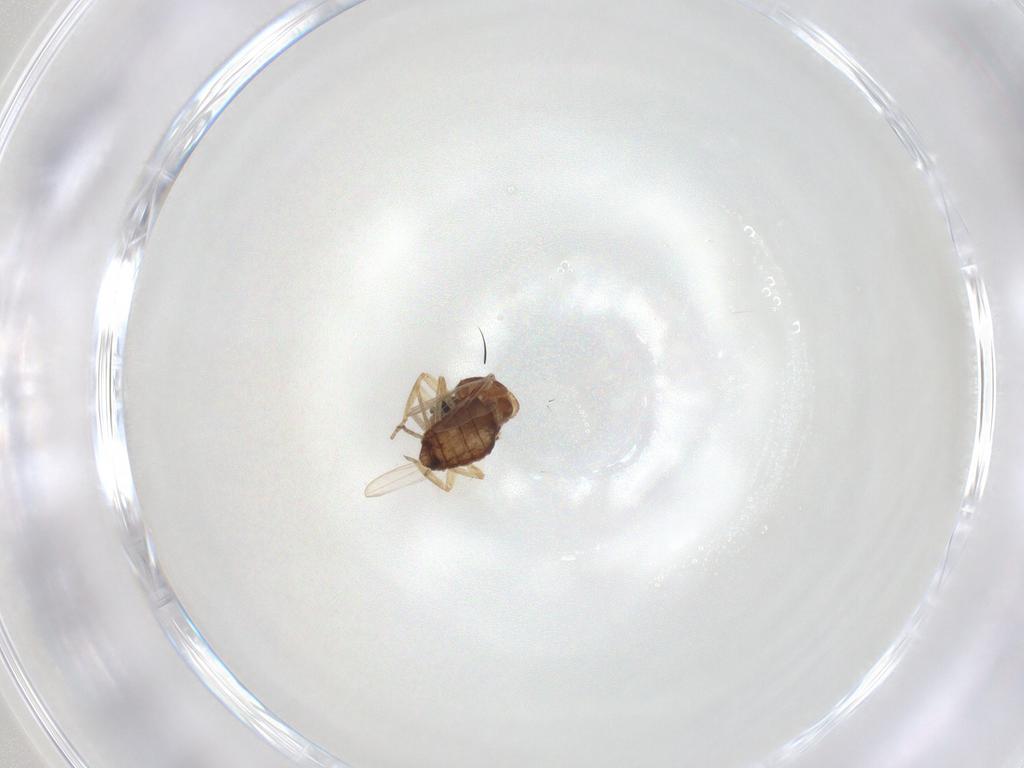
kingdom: Animalia
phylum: Arthropoda
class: Insecta
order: Diptera
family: Ceratopogonidae
